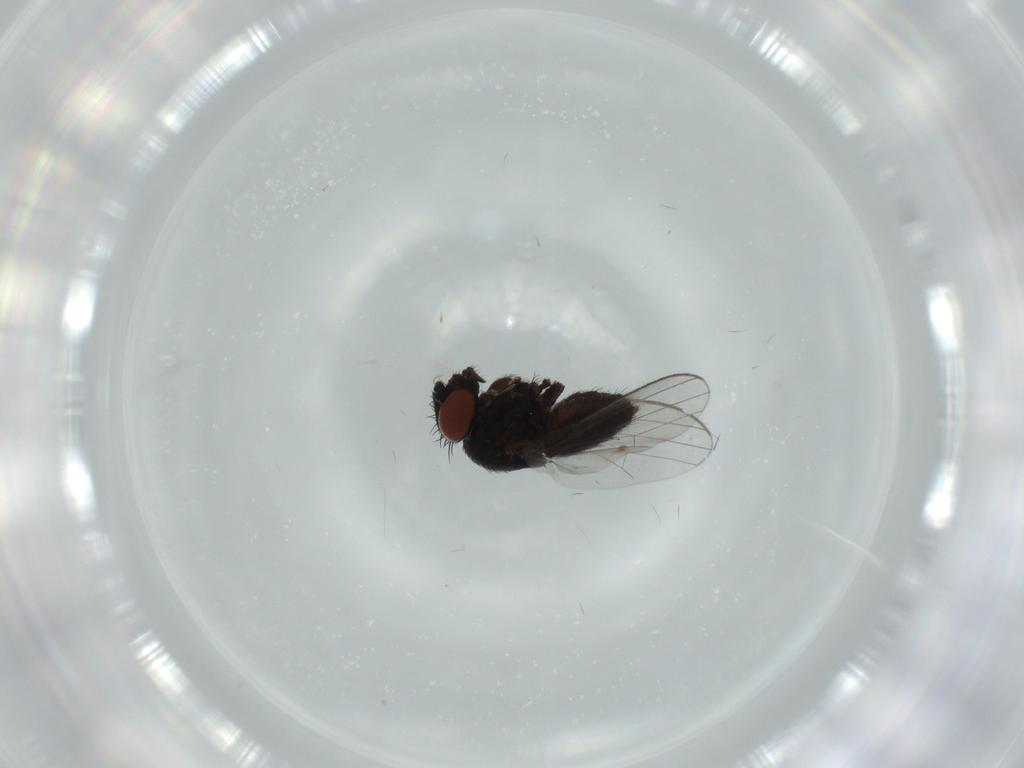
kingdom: Animalia
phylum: Arthropoda
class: Insecta
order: Diptera
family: Milichiidae
